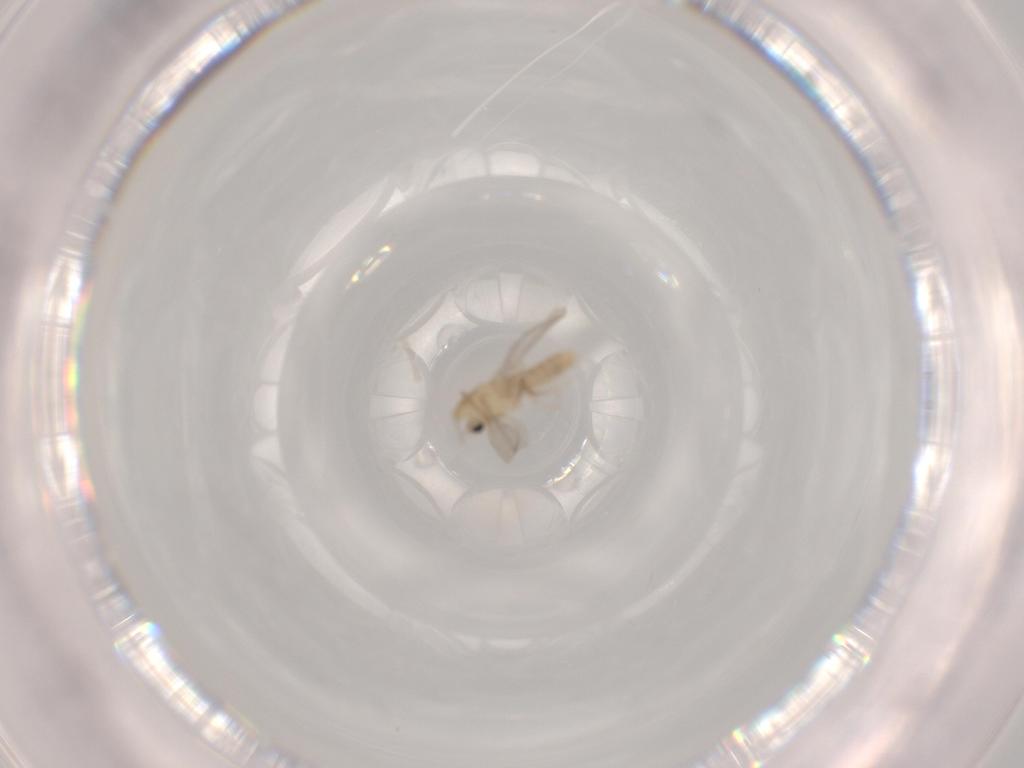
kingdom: Animalia
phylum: Arthropoda
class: Insecta
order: Diptera
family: Chironomidae
